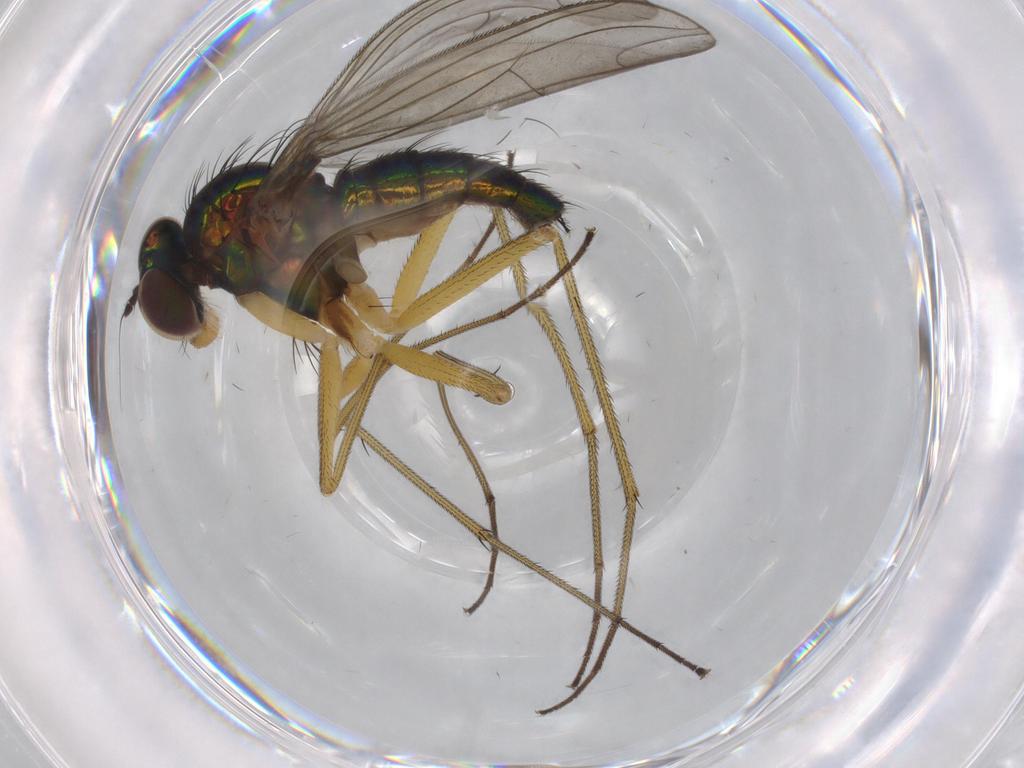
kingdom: Animalia
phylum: Arthropoda
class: Insecta
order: Diptera
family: Dolichopodidae
